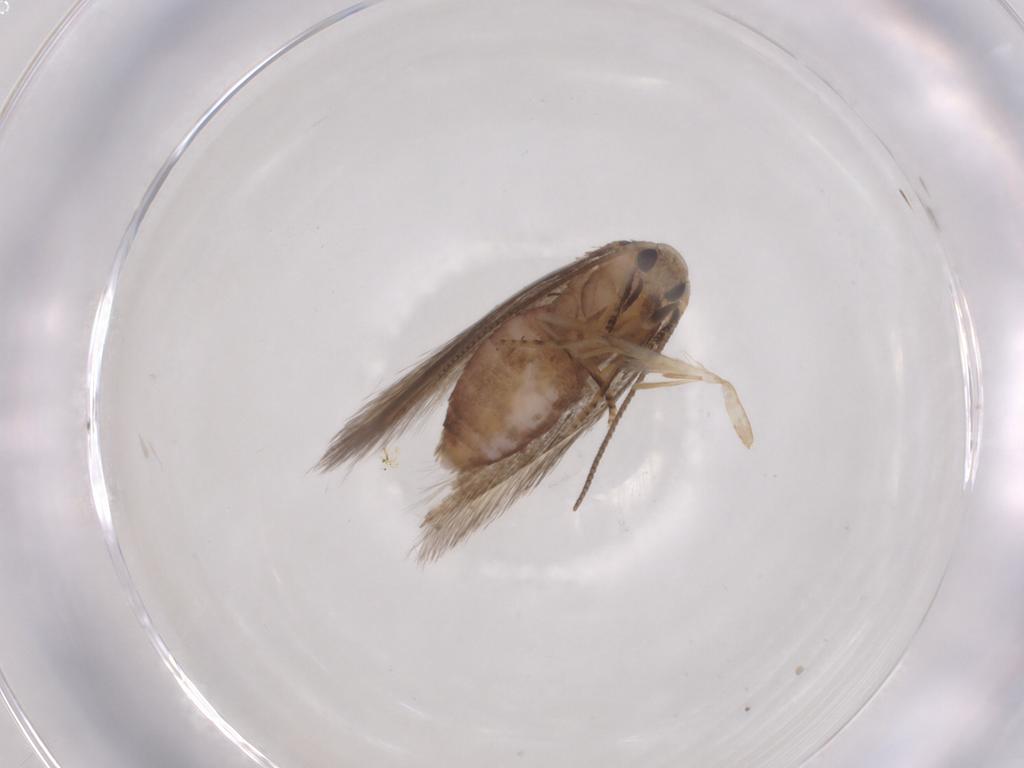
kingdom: Animalia
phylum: Arthropoda
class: Insecta
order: Lepidoptera
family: Elachistidae
